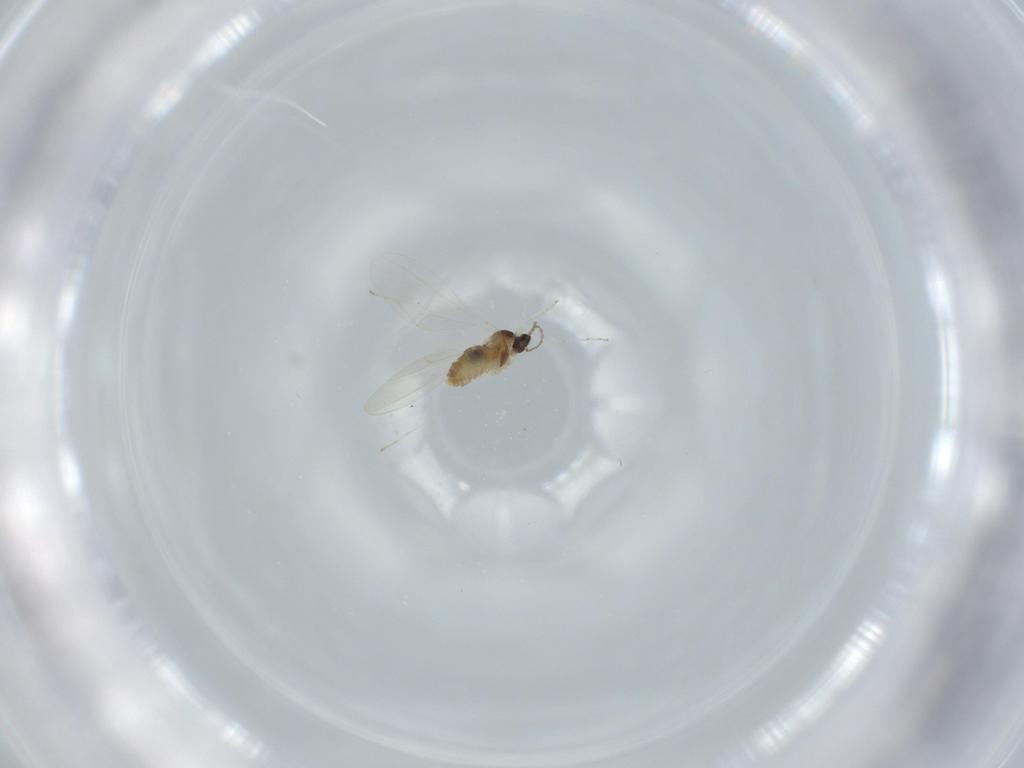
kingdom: Animalia
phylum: Arthropoda
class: Insecta
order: Diptera
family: Cecidomyiidae
